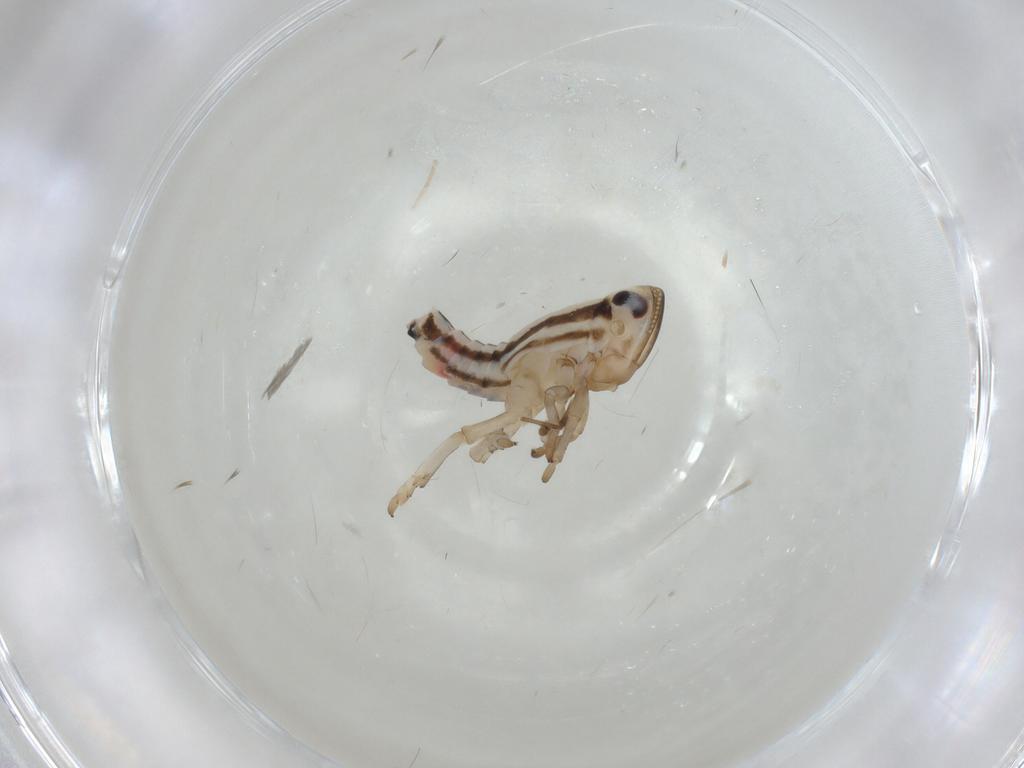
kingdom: Animalia
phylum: Arthropoda
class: Insecta
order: Hemiptera
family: Fulgoroidea_incertae_sedis
